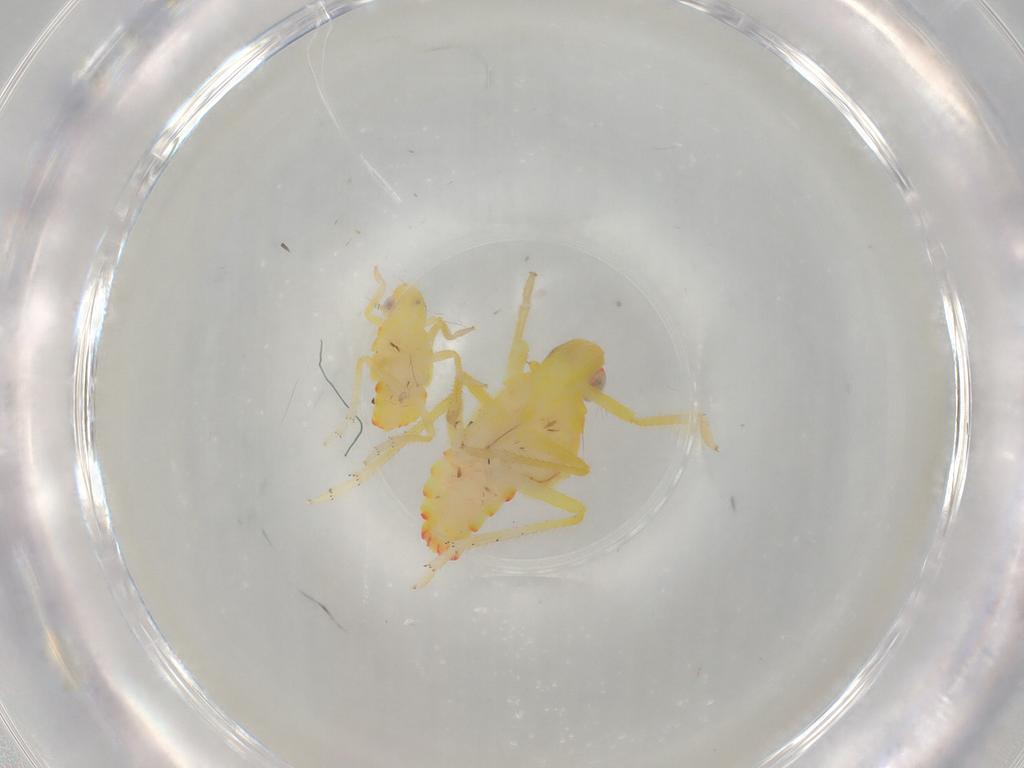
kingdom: Animalia
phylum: Arthropoda
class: Insecta
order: Hemiptera
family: Tropiduchidae
